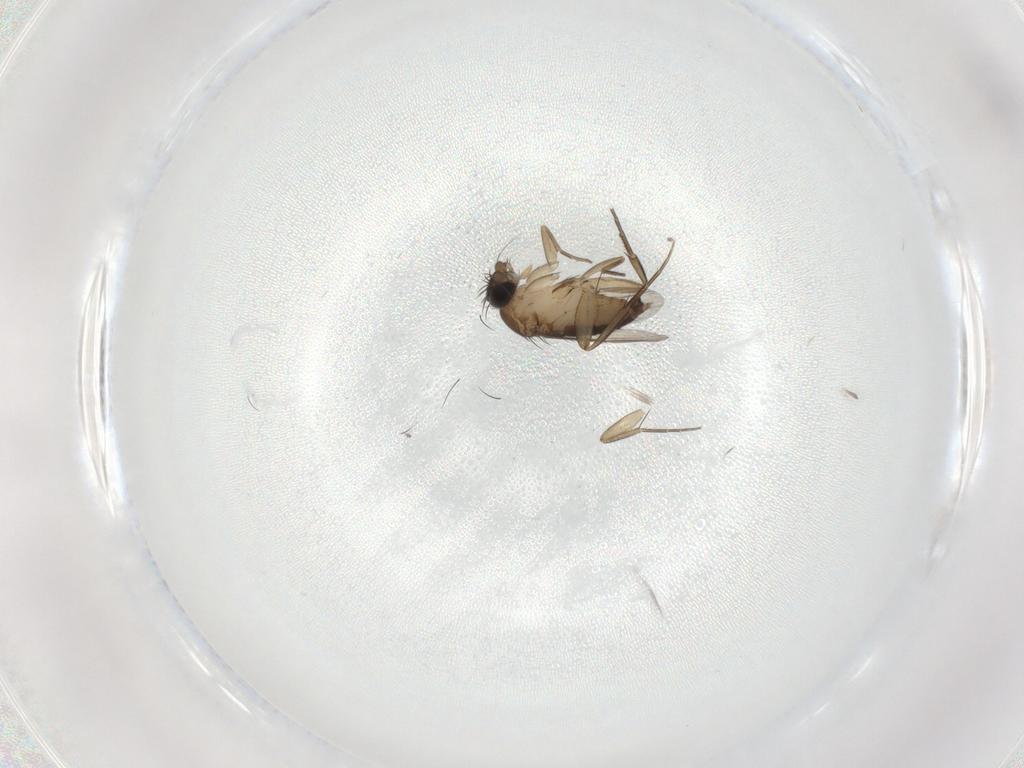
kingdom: Animalia
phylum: Arthropoda
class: Insecta
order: Diptera
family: Phoridae
